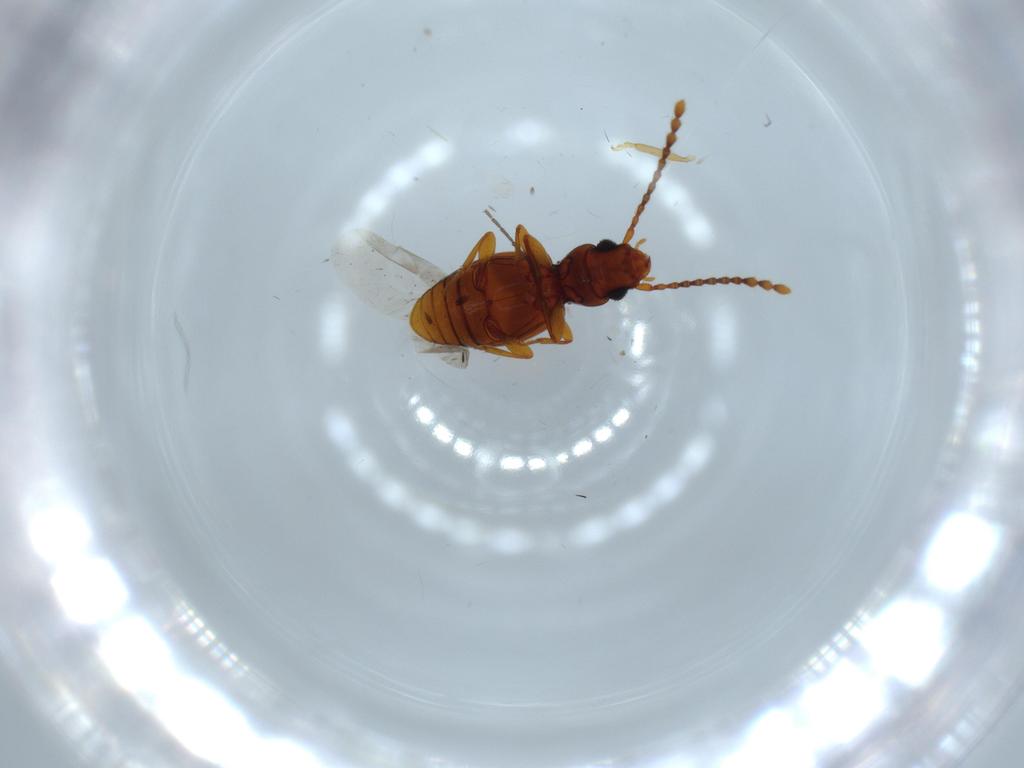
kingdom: Animalia
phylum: Arthropoda
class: Insecta
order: Coleoptera
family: Laemophloeidae
